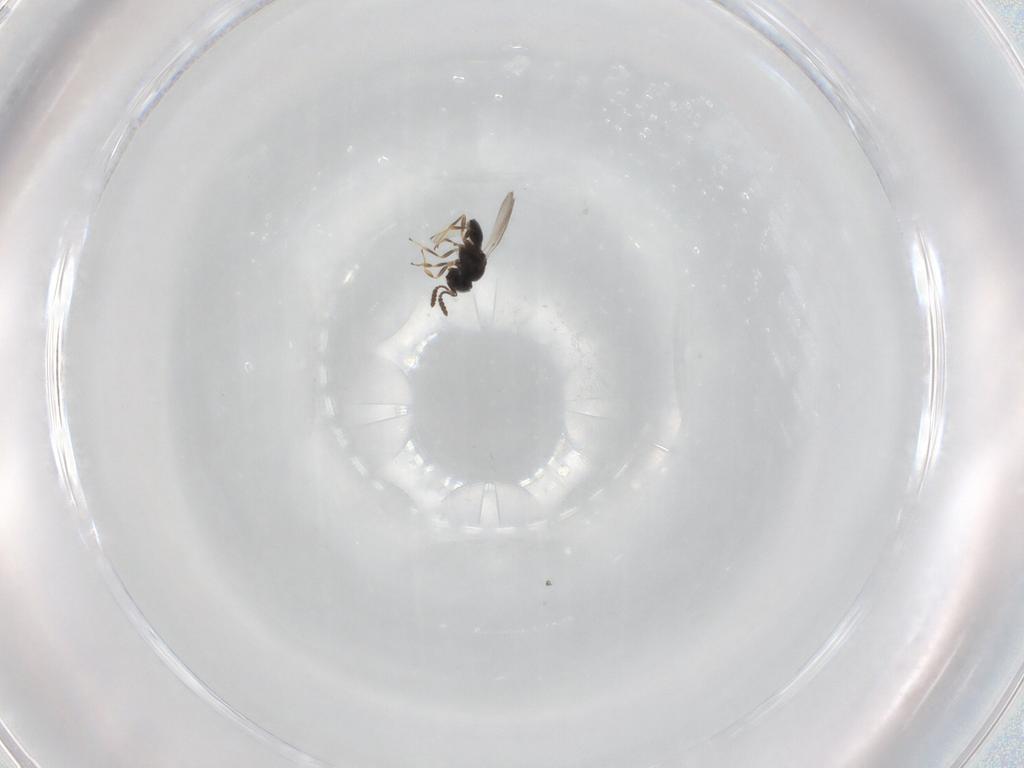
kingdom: Animalia
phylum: Arthropoda
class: Insecta
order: Hymenoptera
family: Scelionidae
